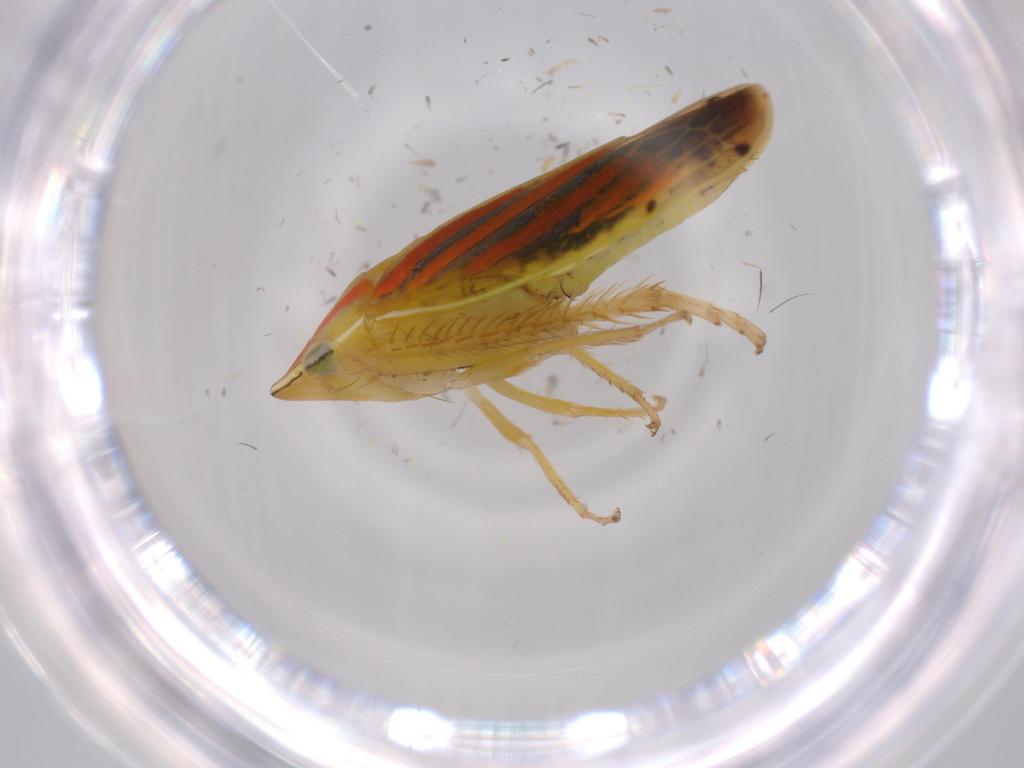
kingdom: Animalia
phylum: Arthropoda
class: Insecta
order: Hemiptera
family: Cicadellidae
